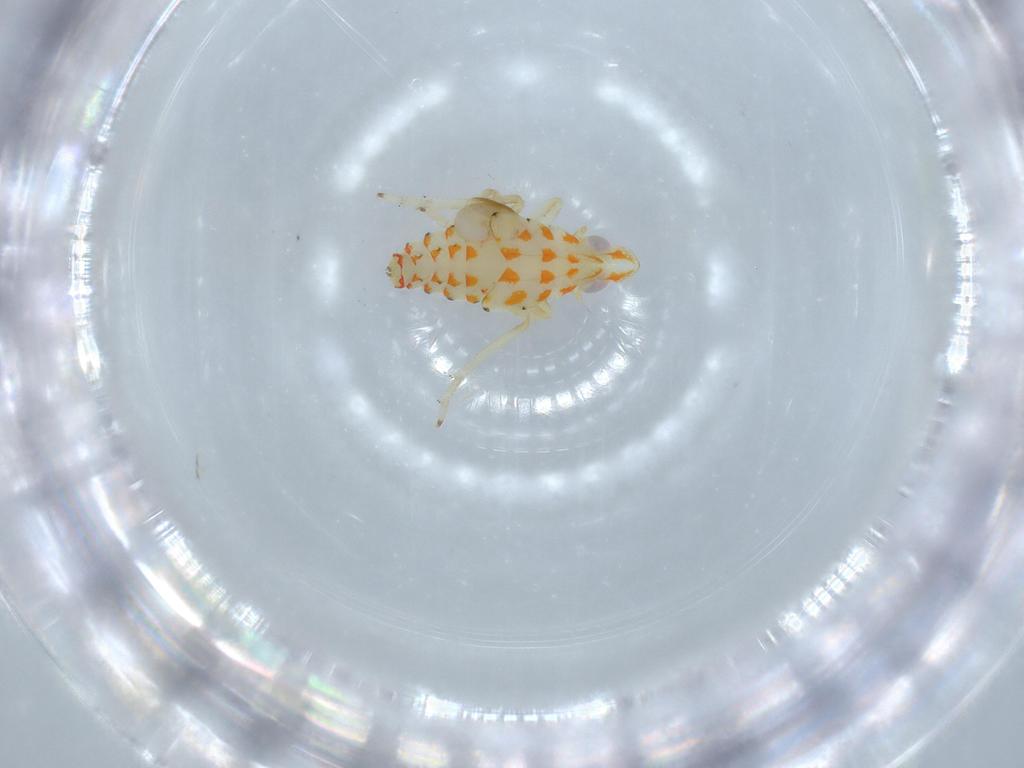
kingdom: Animalia
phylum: Arthropoda
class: Insecta
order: Hemiptera
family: Tropiduchidae
